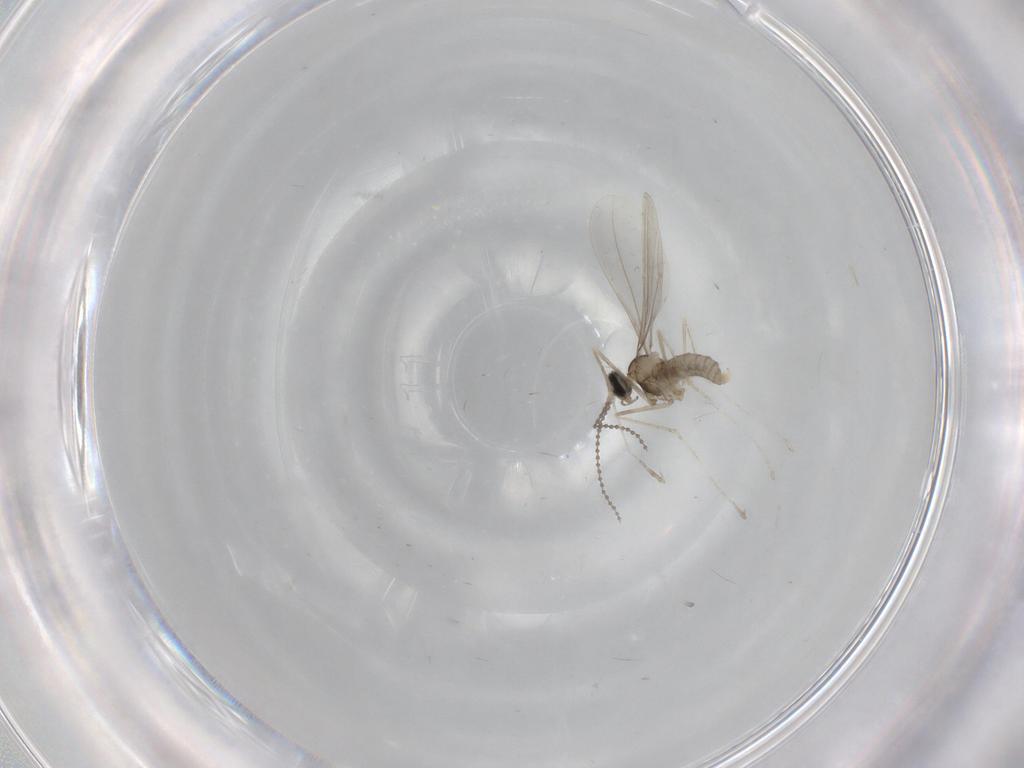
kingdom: Animalia
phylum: Arthropoda
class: Insecta
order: Diptera
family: Cecidomyiidae
